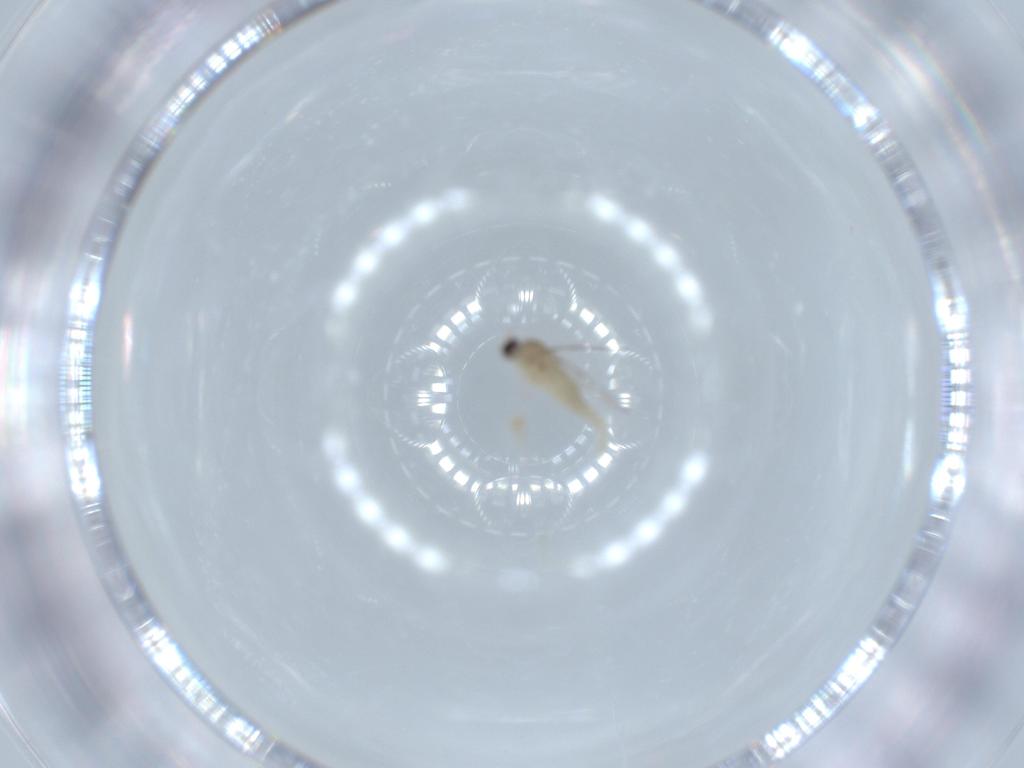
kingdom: Animalia
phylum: Arthropoda
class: Insecta
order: Diptera
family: Cecidomyiidae
